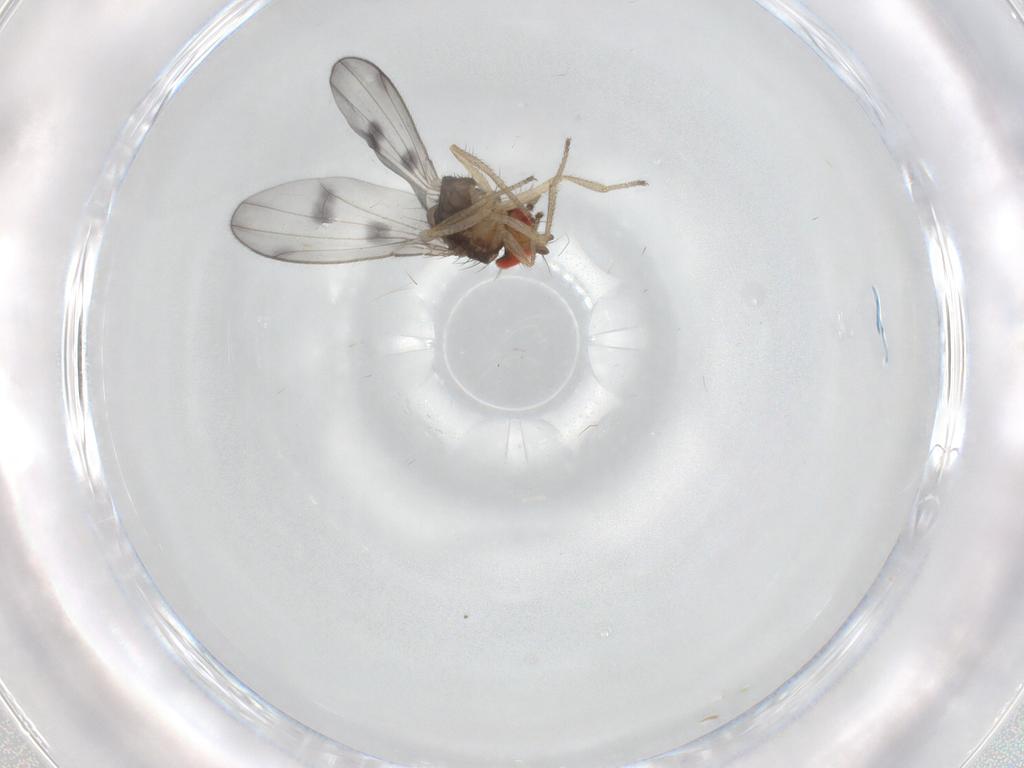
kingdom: Animalia
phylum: Arthropoda
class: Insecta
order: Diptera
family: Drosophilidae
